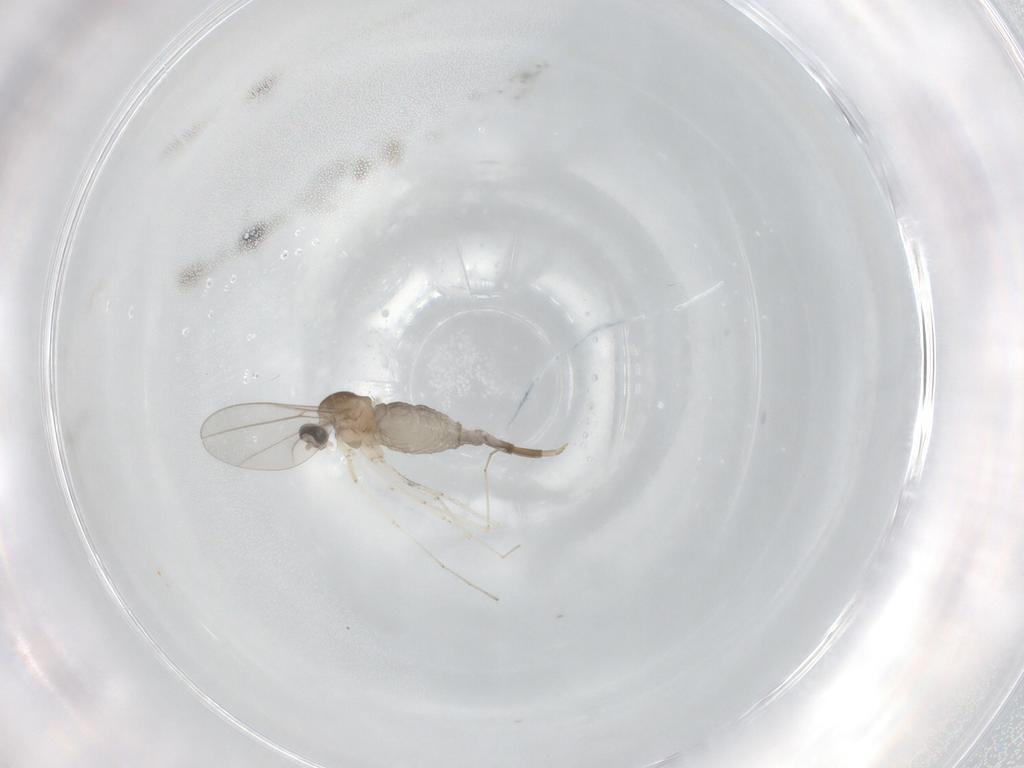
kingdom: Animalia
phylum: Arthropoda
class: Insecta
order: Diptera
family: Cecidomyiidae
